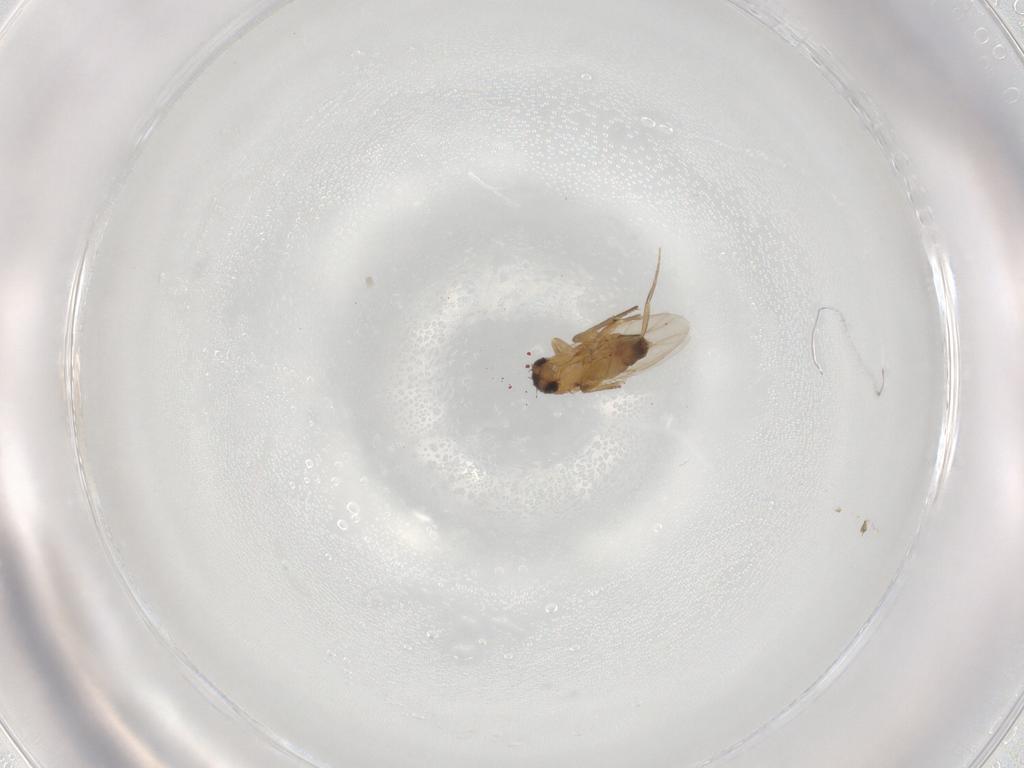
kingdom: Animalia
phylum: Arthropoda
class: Insecta
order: Diptera
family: Phoridae
